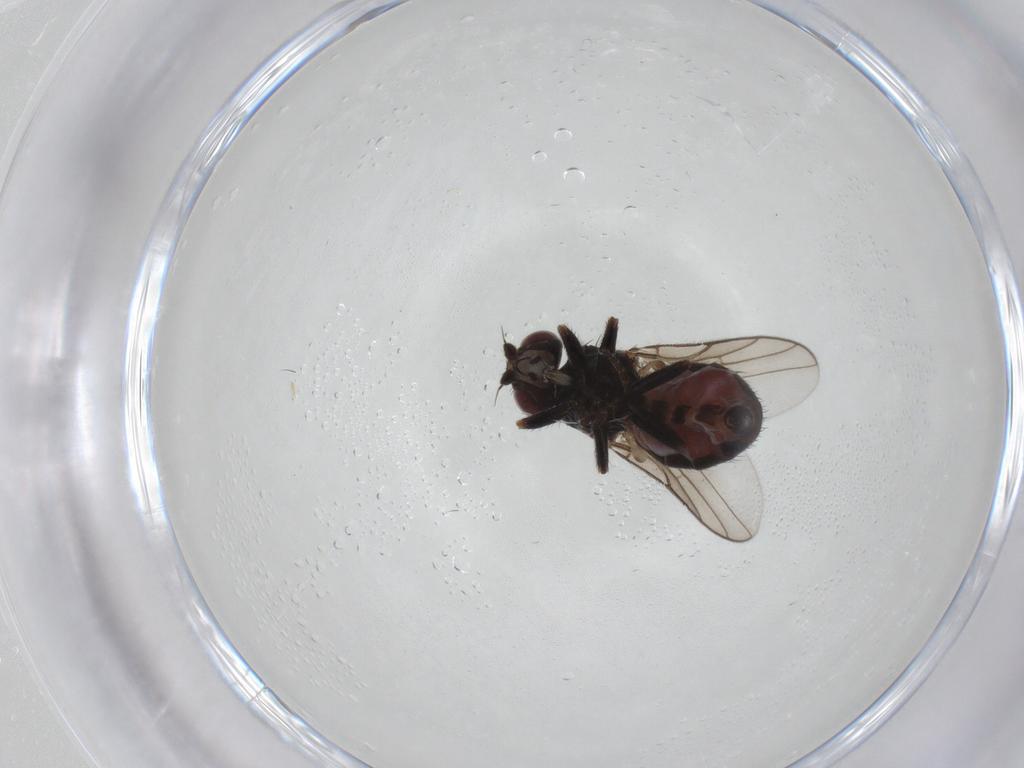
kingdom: Animalia
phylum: Arthropoda
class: Insecta
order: Diptera
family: Chloropidae
